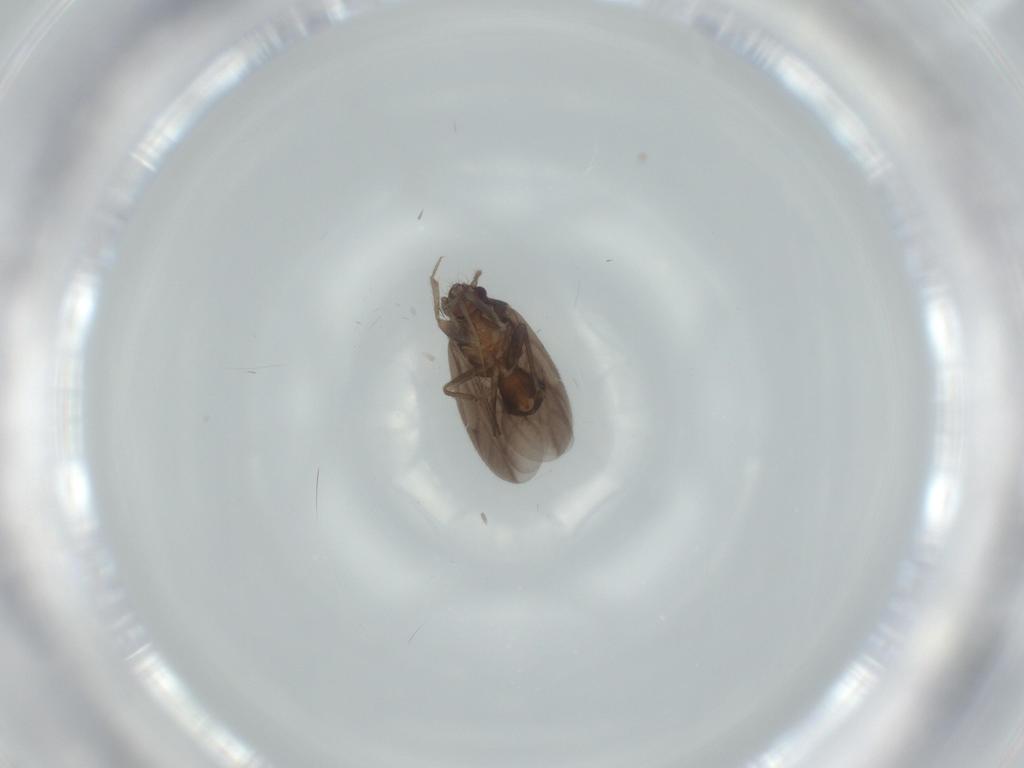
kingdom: Animalia
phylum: Arthropoda
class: Insecta
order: Hemiptera
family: Ceratocombidae
